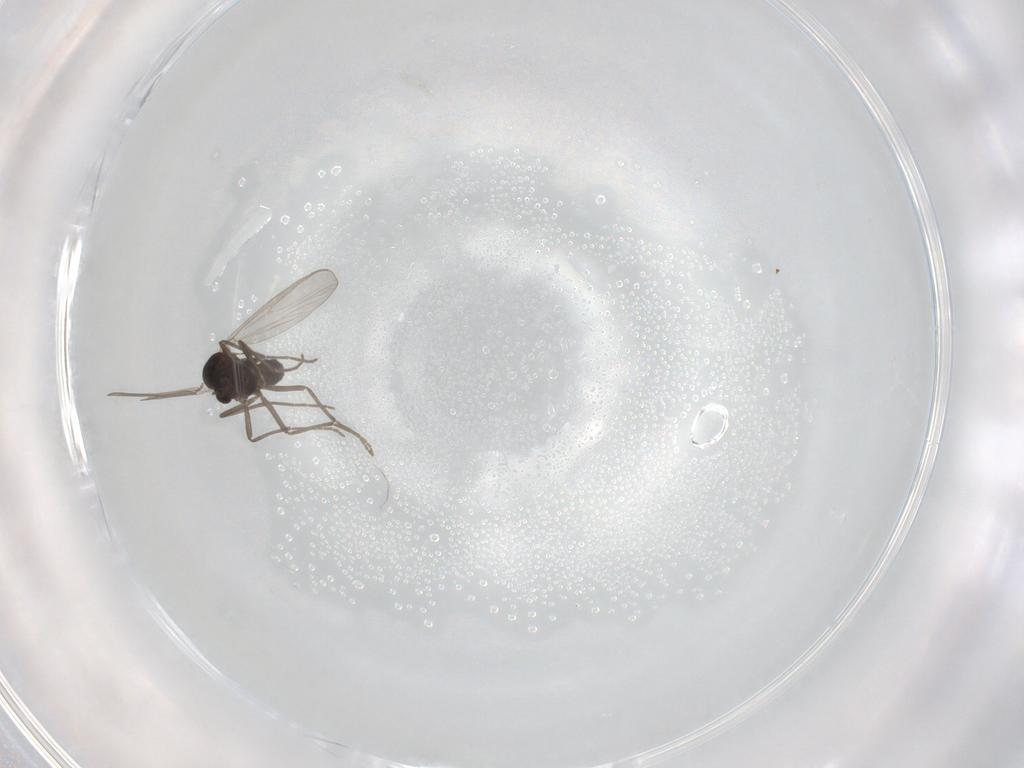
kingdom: Animalia
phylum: Arthropoda
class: Insecta
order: Diptera
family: Chironomidae
